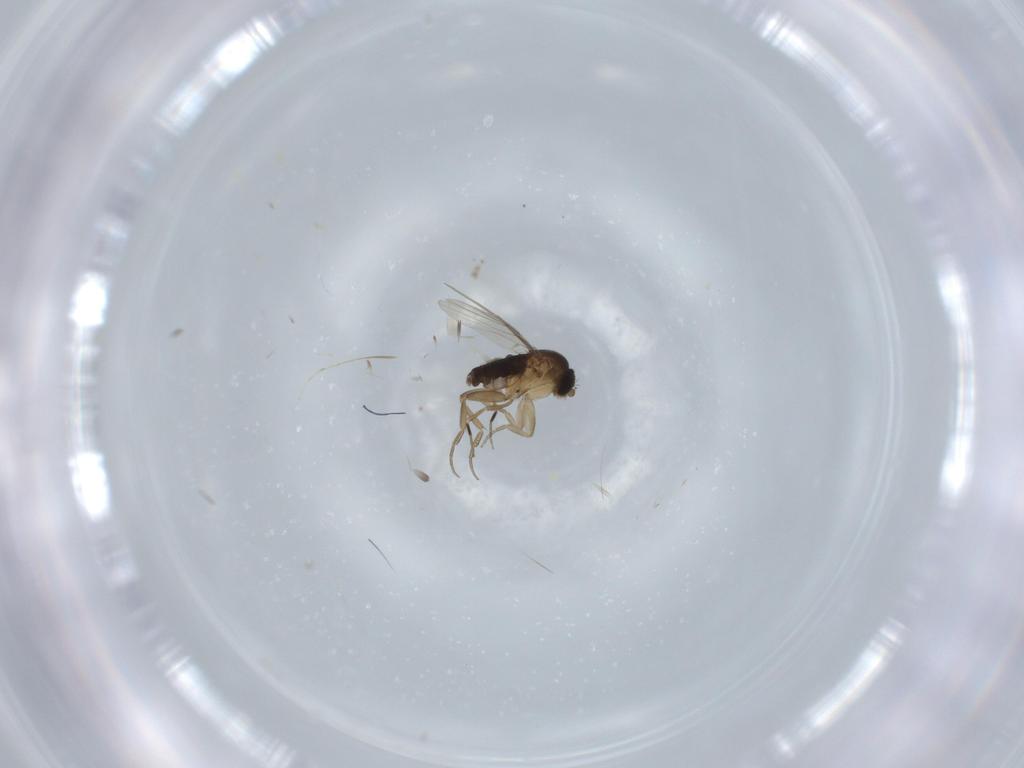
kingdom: Animalia
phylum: Arthropoda
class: Insecta
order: Diptera
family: Phoridae
